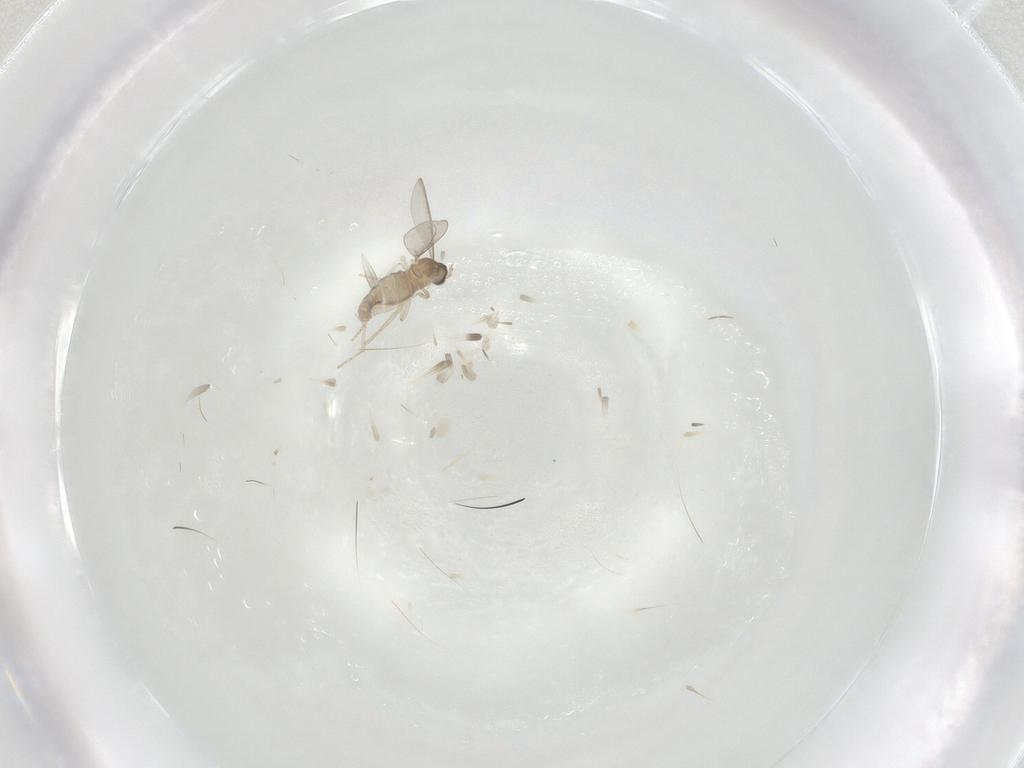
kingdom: Animalia
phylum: Arthropoda
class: Insecta
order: Diptera
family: Cecidomyiidae
